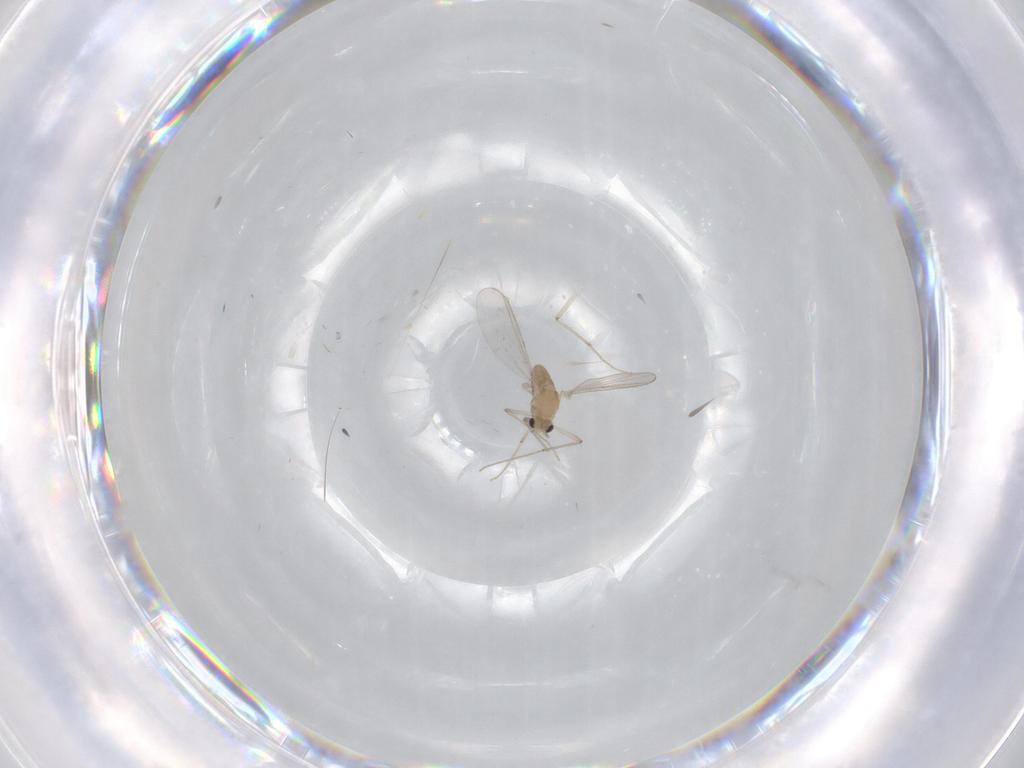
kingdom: Animalia
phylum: Arthropoda
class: Insecta
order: Diptera
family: Chironomidae
